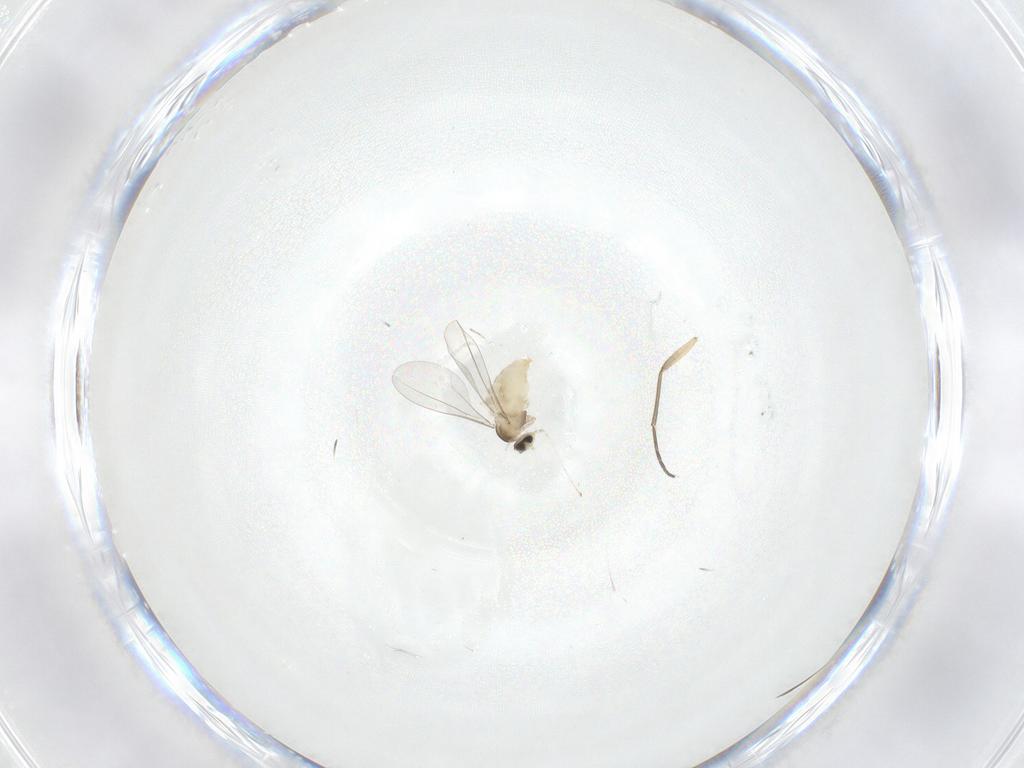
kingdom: Animalia
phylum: Arthropoda
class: Insecta
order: Diptera
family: Cecidomyiidae
